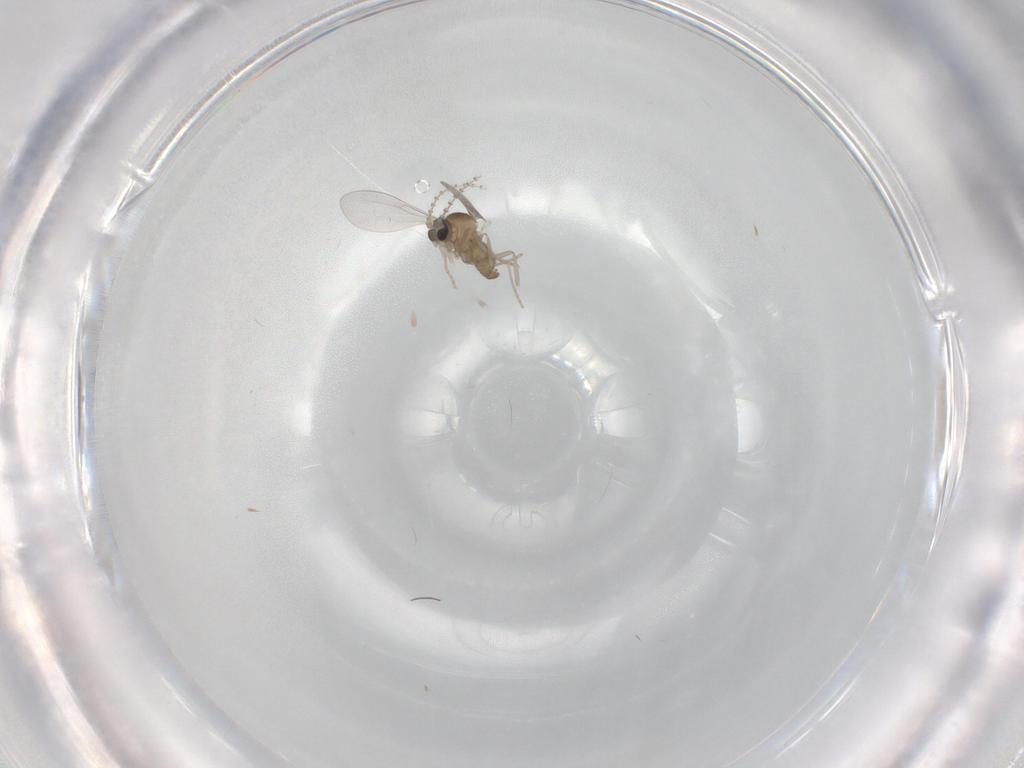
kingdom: Animalia
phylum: Arthropoda
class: Insecta
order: Diptera
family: Cecidomyiidae
